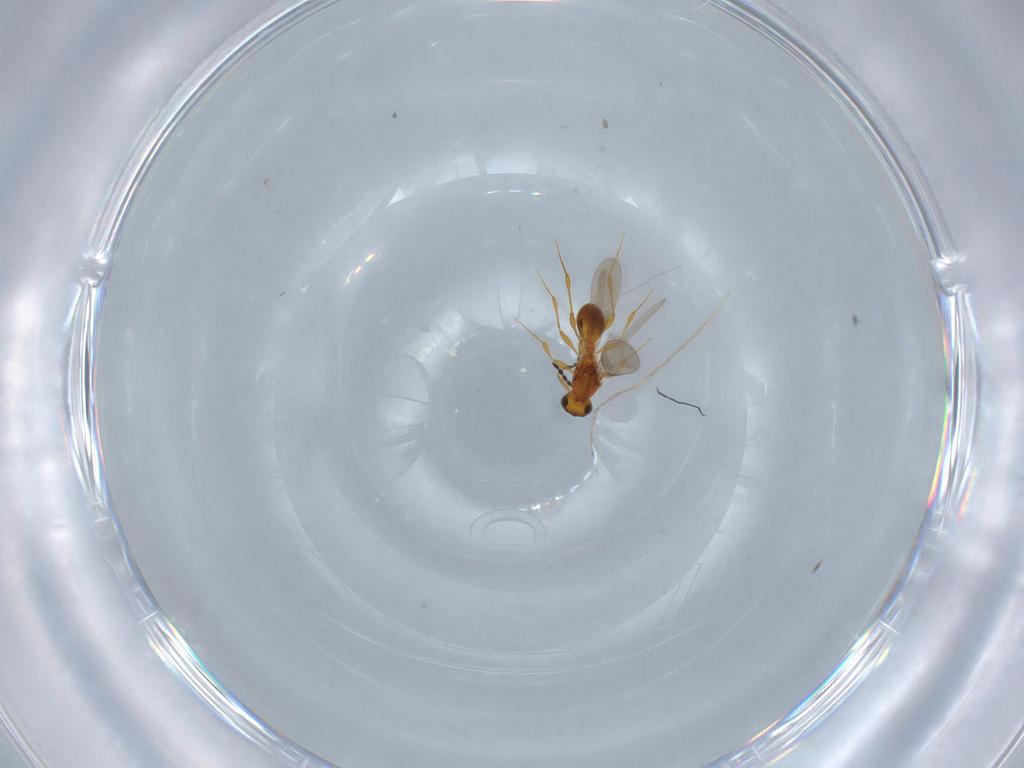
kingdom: Animalia
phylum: Arthropoda
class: Insecta
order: Hymenoptera
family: Platygastridae
